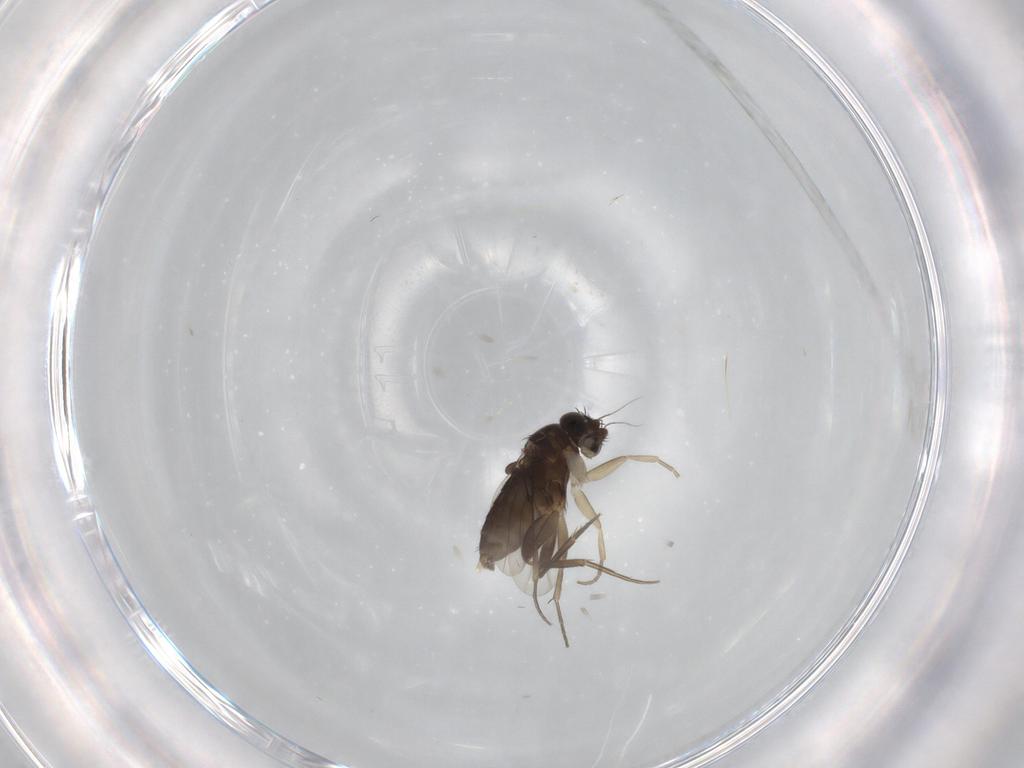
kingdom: Animalia
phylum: Arthropoda
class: Insecta
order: Diptera
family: Phoridae
